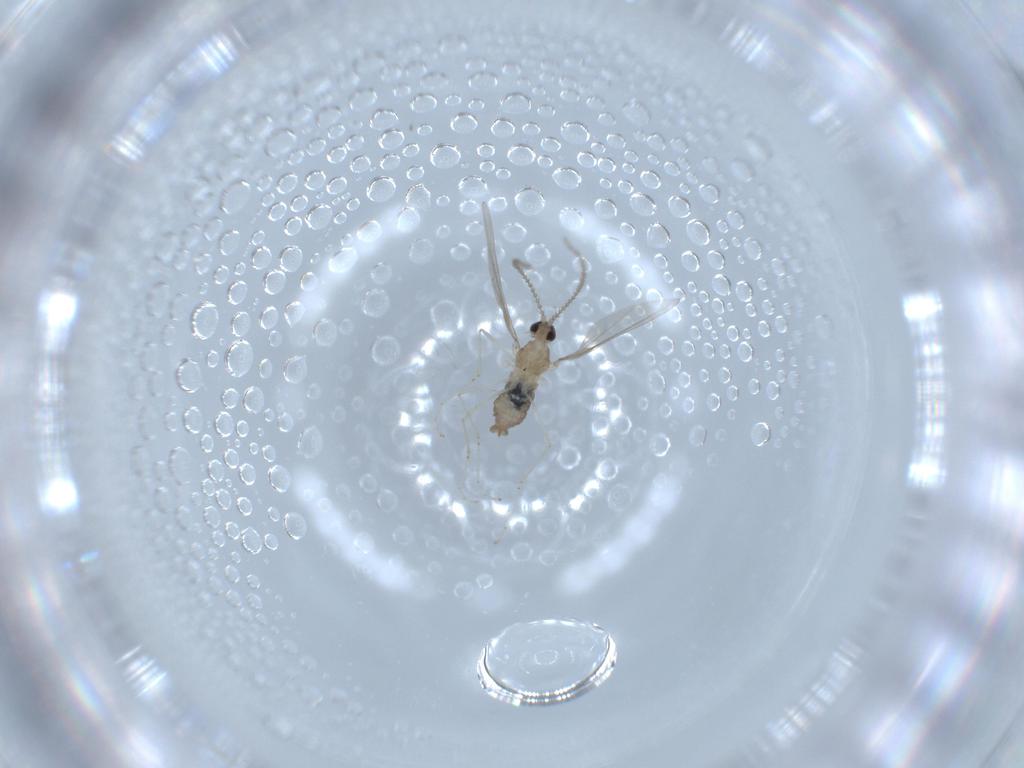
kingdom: Animalia
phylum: Arthropoda
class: Insecta
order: Diptera
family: Cecidomyiidae
